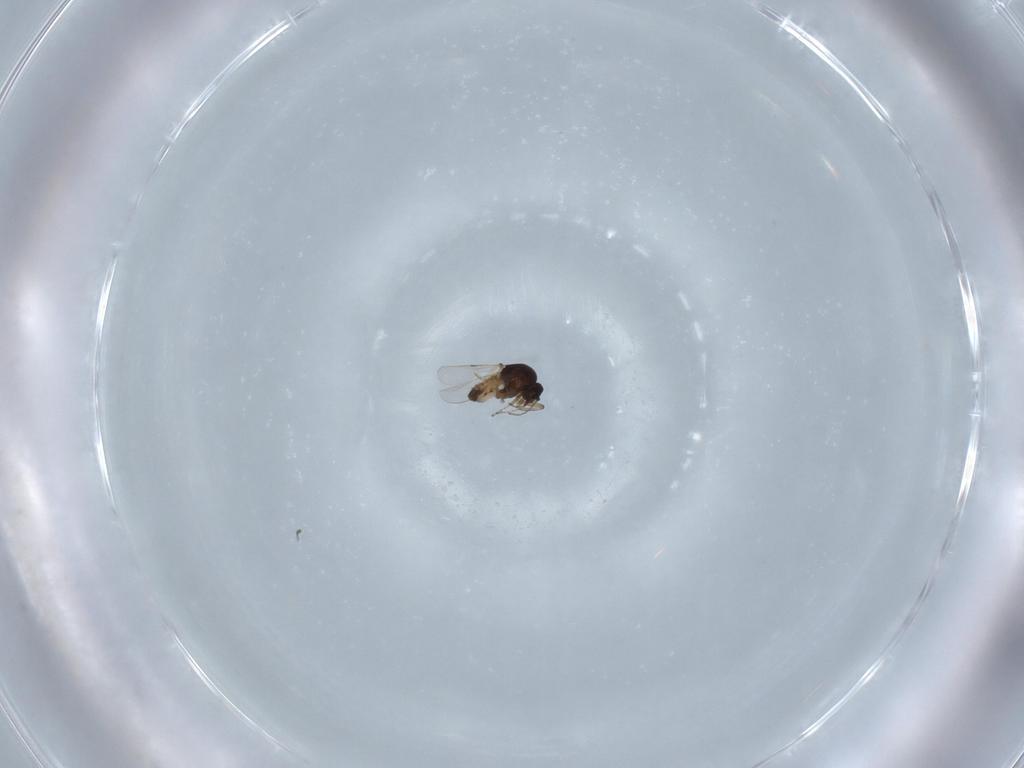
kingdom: Animalia
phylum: Arthropoda
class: Insecta
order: Diptera
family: Ceratopogonidae
